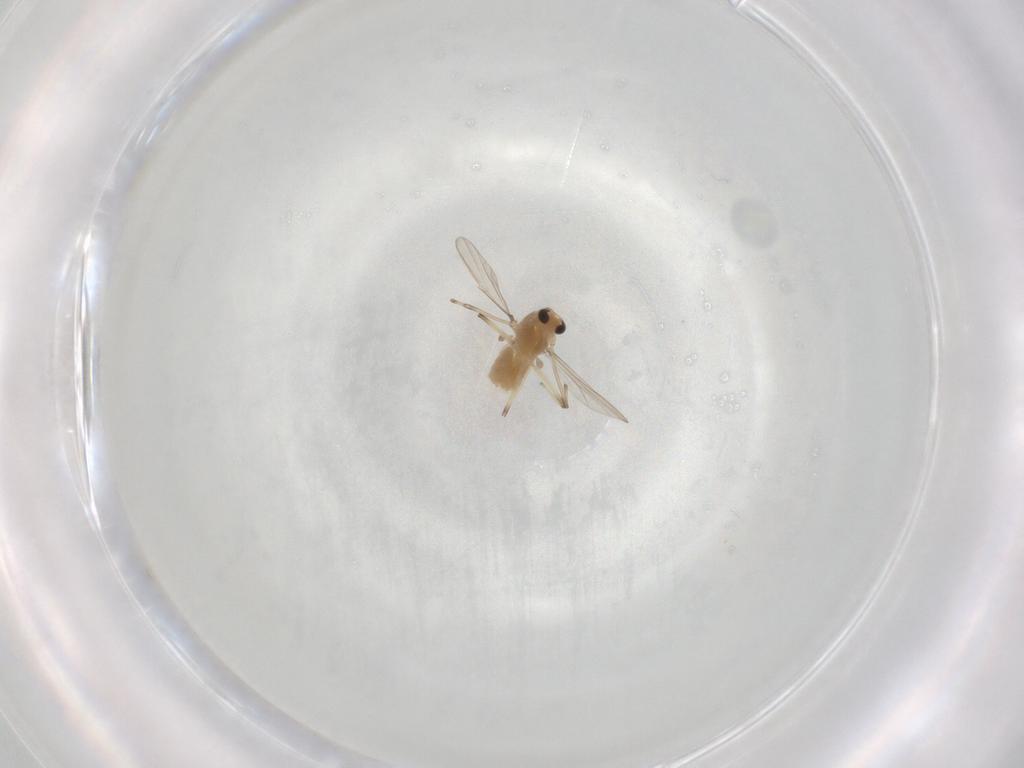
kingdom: Animalia
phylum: Arthropoda
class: Insecta
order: Diptera
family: Chironomidae
